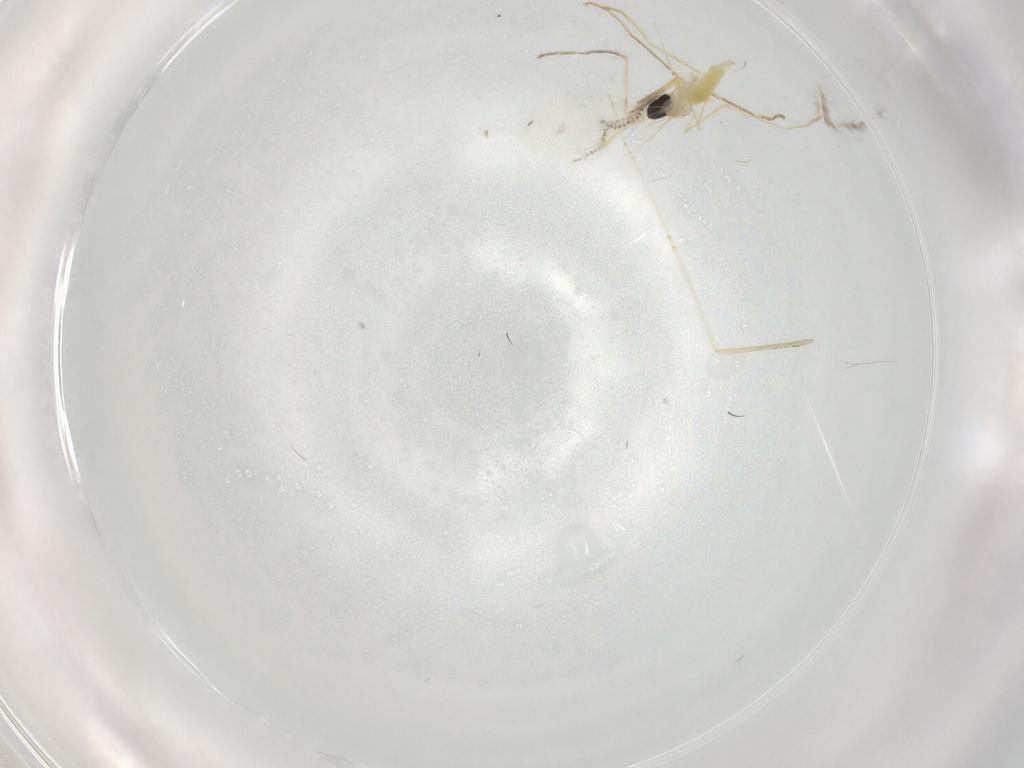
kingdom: Animalia
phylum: Arthropoda
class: Insecta
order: Diptera
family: Cecidomyiidae
